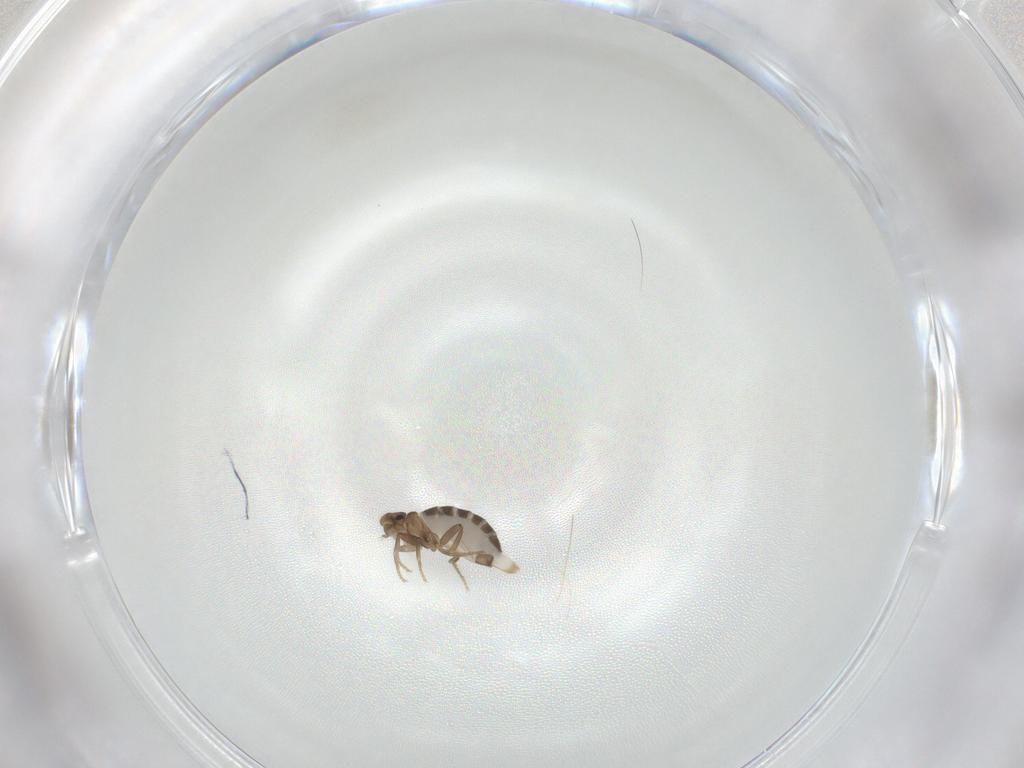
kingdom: Animalia
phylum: Arthropoda
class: Insecta
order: Diptera
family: Phoridae
